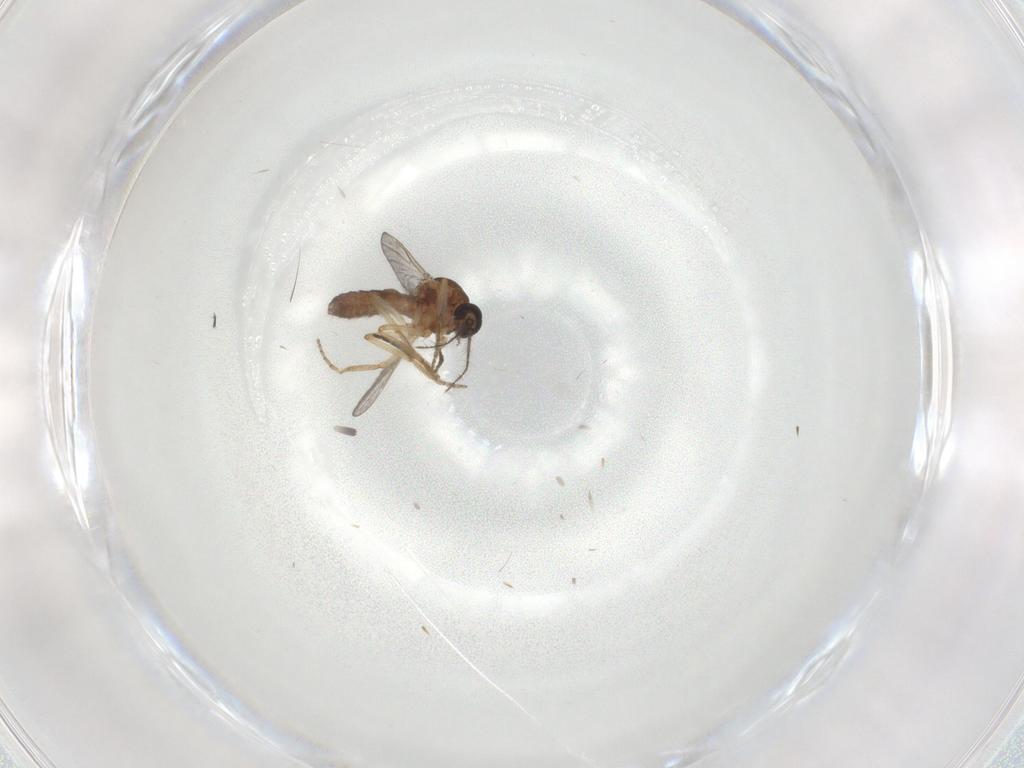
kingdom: Animalia
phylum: Arthropoda
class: Insecta
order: Diptera
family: Ceratopogonidae
